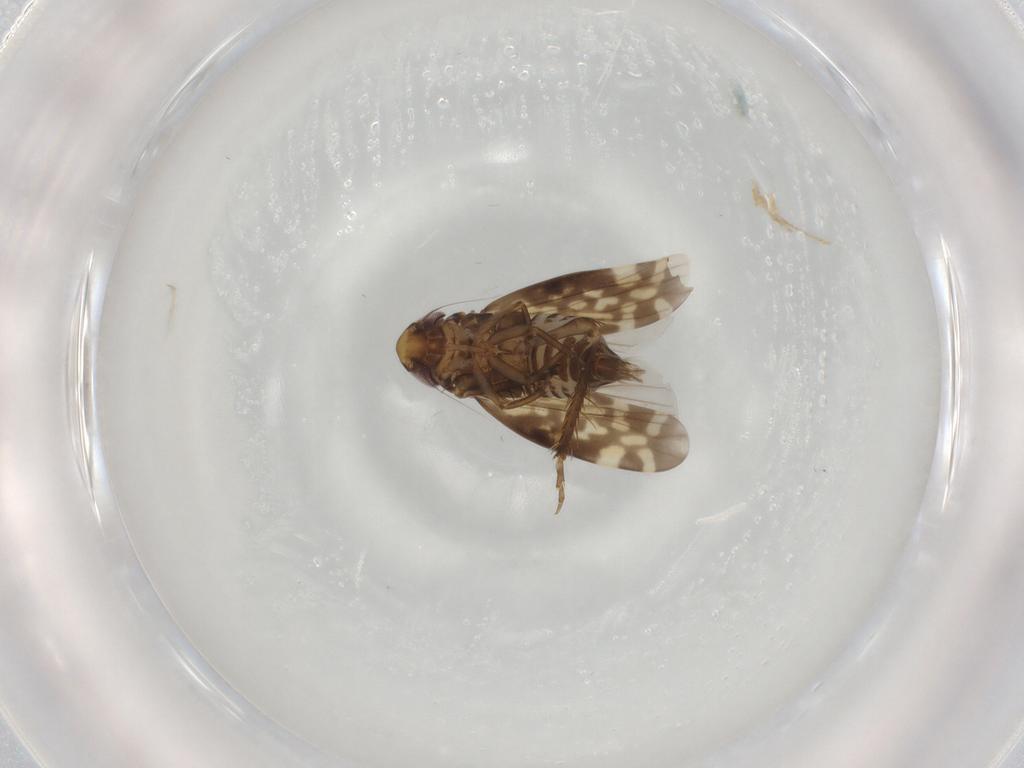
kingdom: Animalia
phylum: Arthropoda
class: Insecta
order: Hemiptera
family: Cicadellidae
